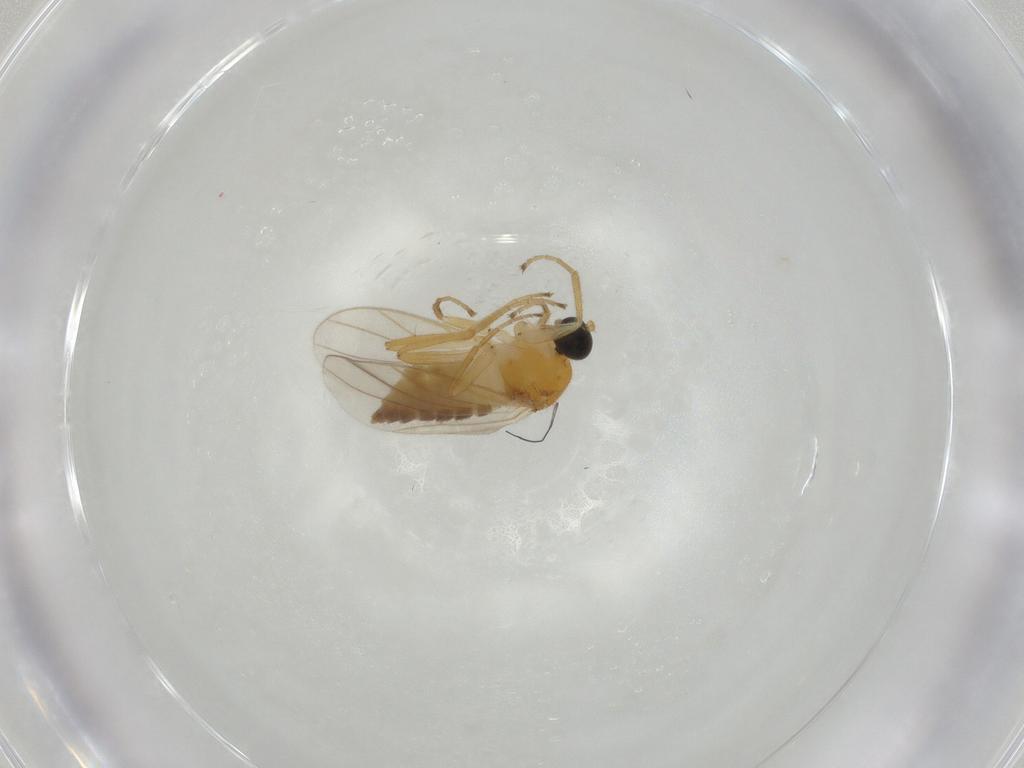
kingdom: Animalia
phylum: Arthropoda
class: Insecta
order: Diptera
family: Hybotidae
